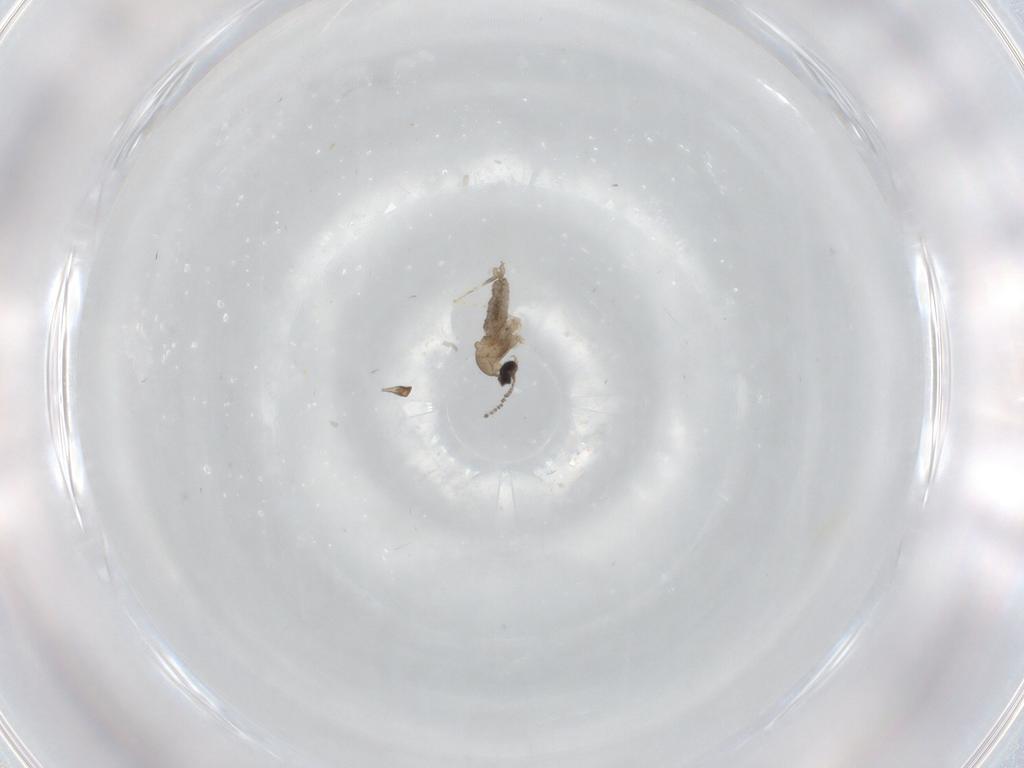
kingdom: Animalia
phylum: Arthropoda
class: Insecta
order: Diptera
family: Limoniidae
